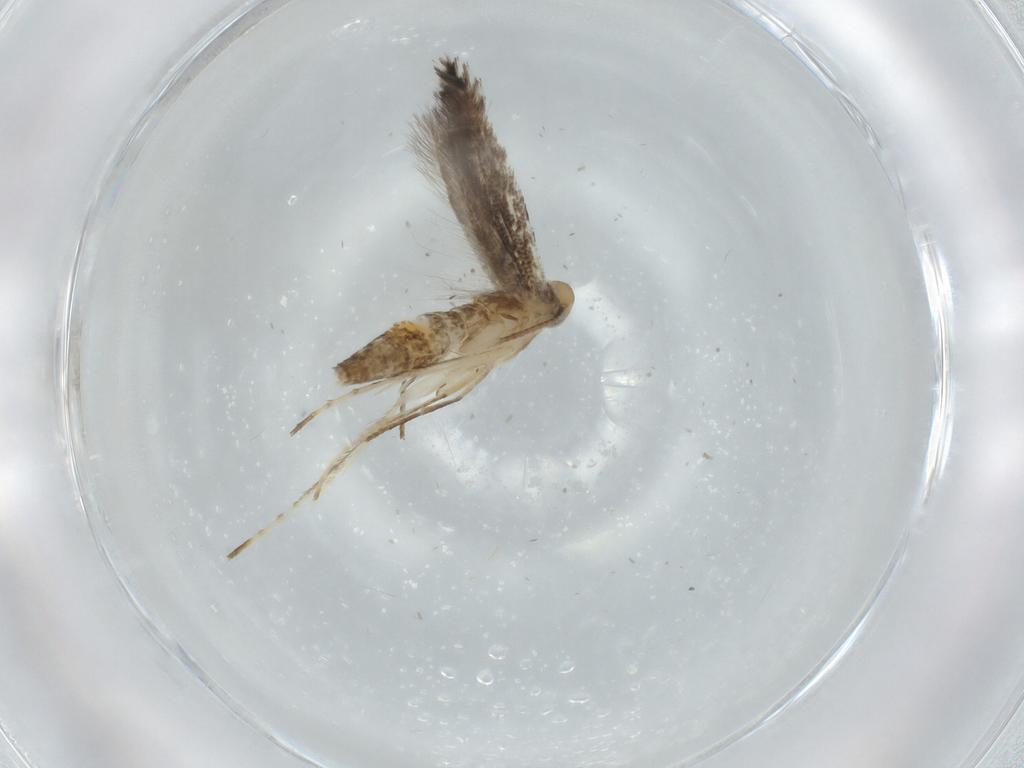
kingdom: Animalia
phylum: Arthropoda
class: Insecta
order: Lepidoptera
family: Gracillariidae
